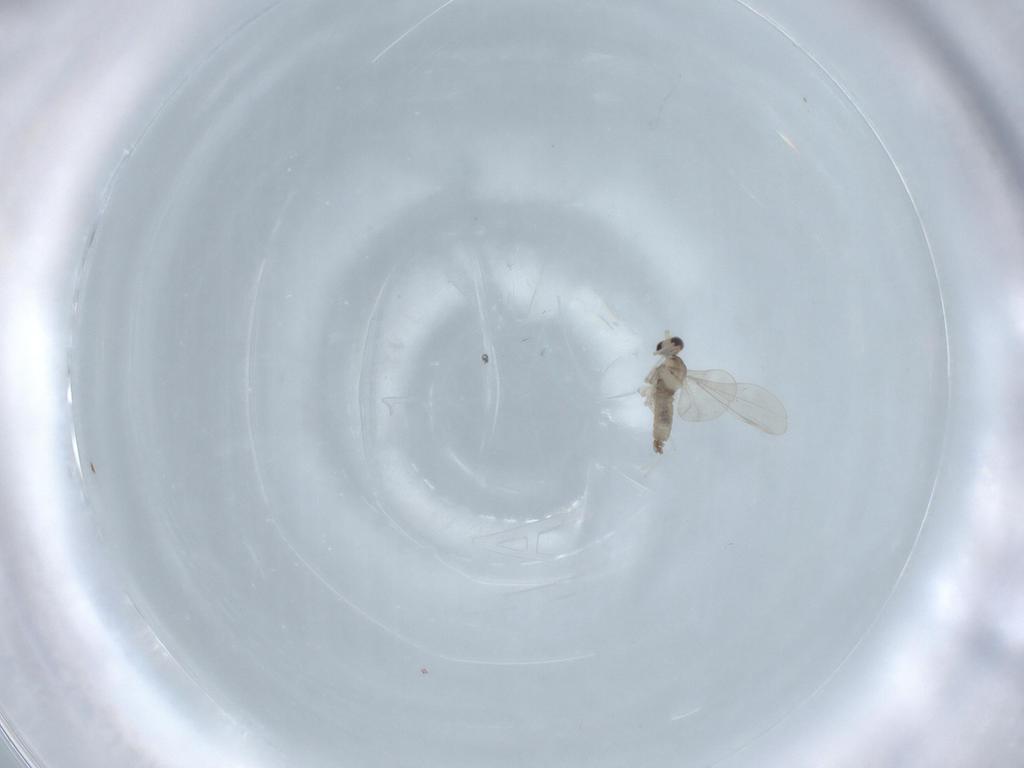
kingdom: Animalia
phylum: Arthropoda
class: Insecta
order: Diptera
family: Cecidomyiidae
